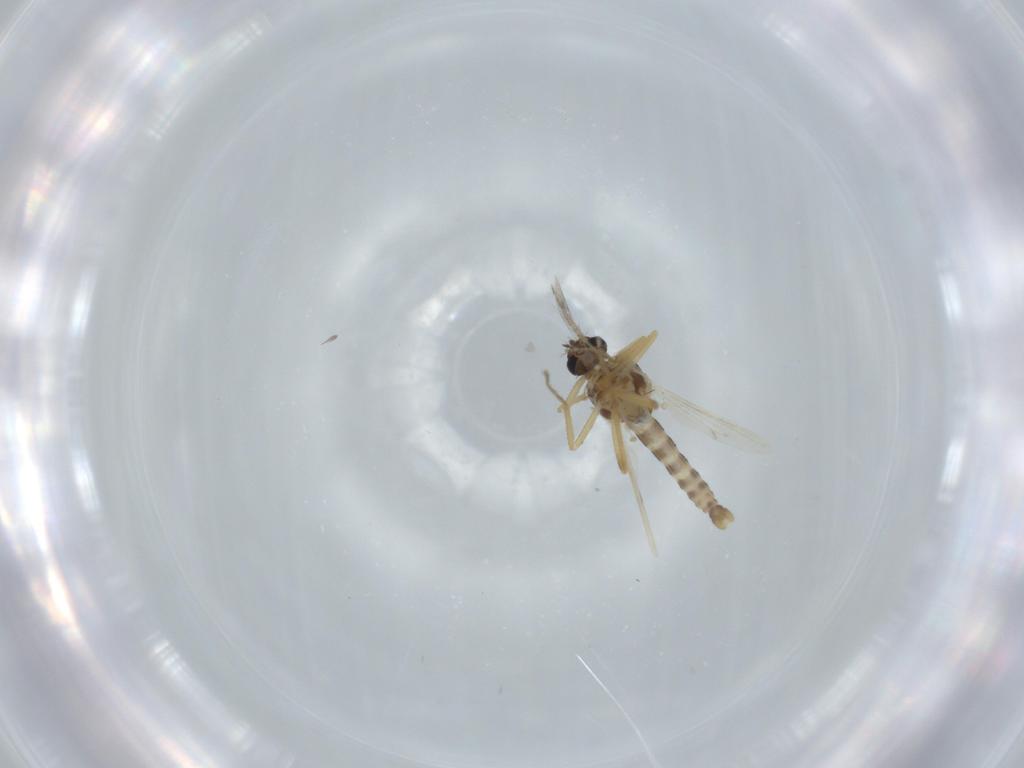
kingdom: Animalia
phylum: Arthropoda
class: Insecta
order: Diptera
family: Ceratopogonidae
